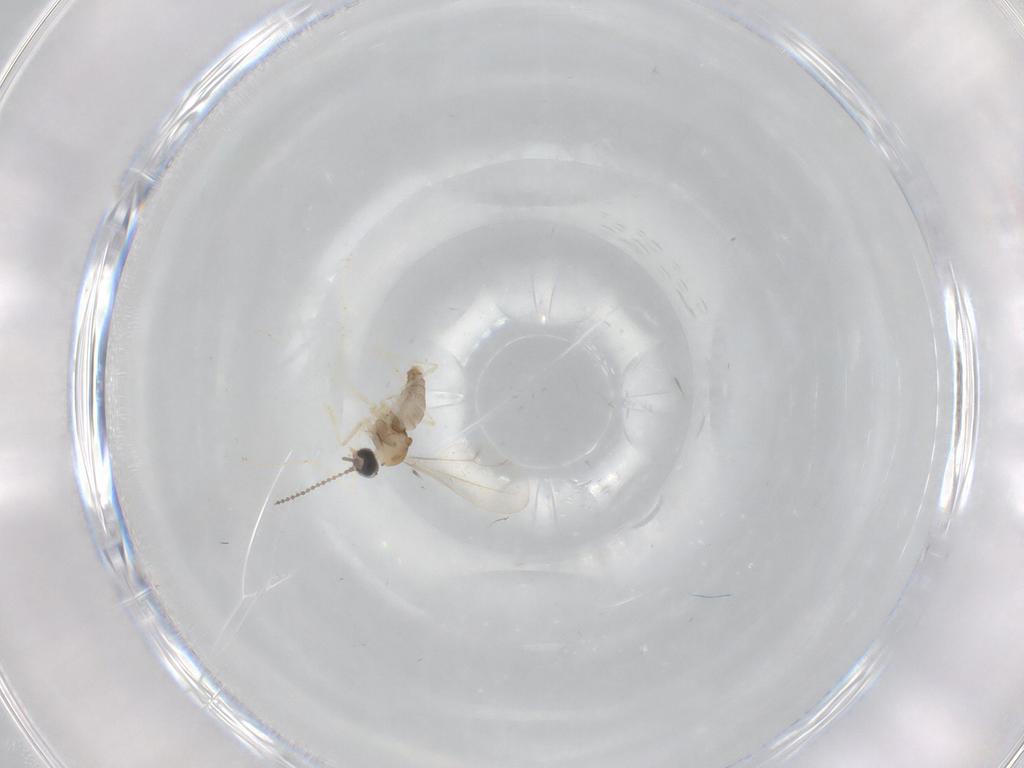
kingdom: Animalia
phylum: Arthropoda
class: Insecta
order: Diptera
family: Cecidomyiidae
